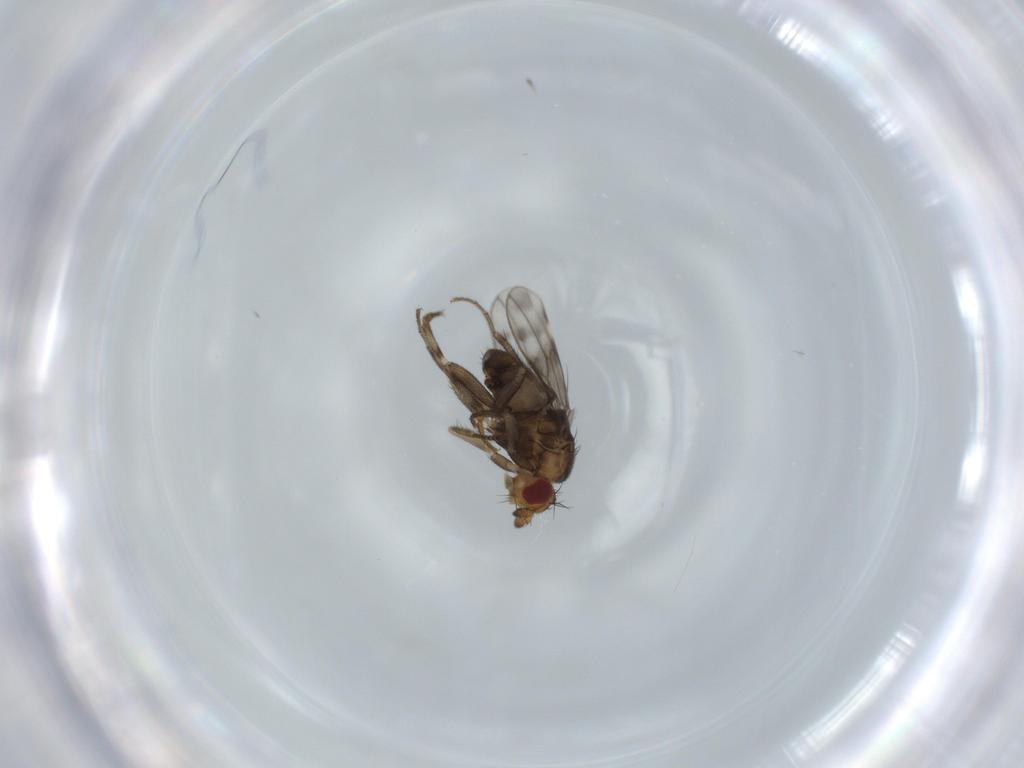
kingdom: Animalia
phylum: Arthropoda
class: Insecta
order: Diptera
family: Sphaeroceridae
